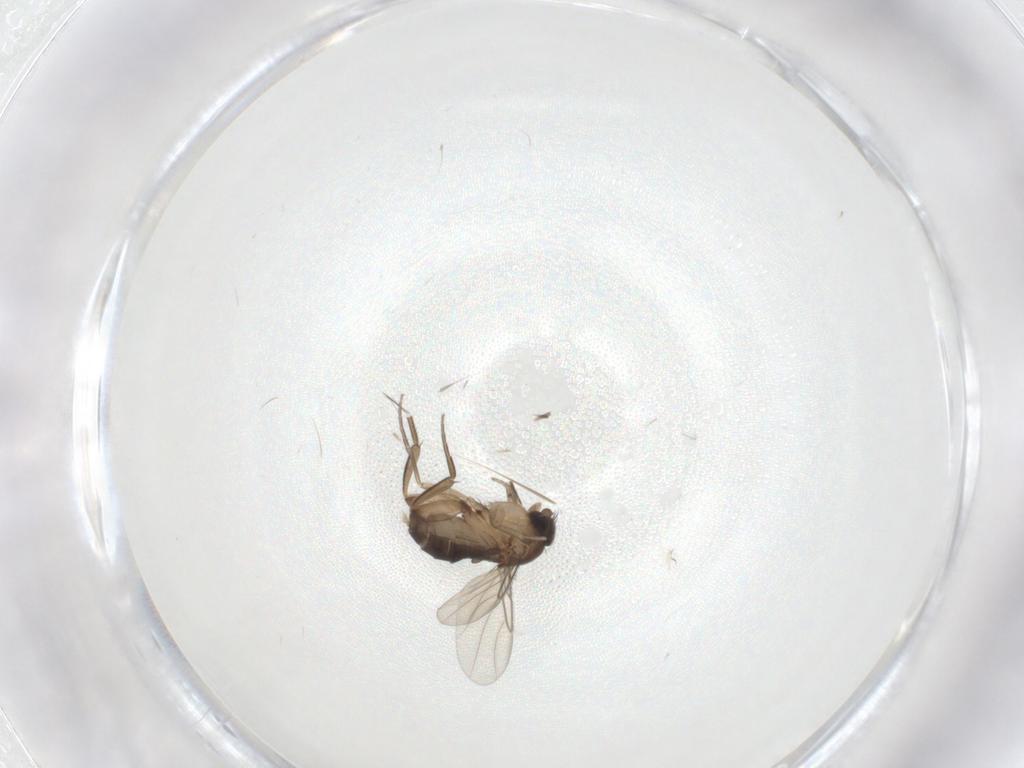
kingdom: Animalia
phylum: Arthropoda
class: Insecta
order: Diptera
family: Phoridae
